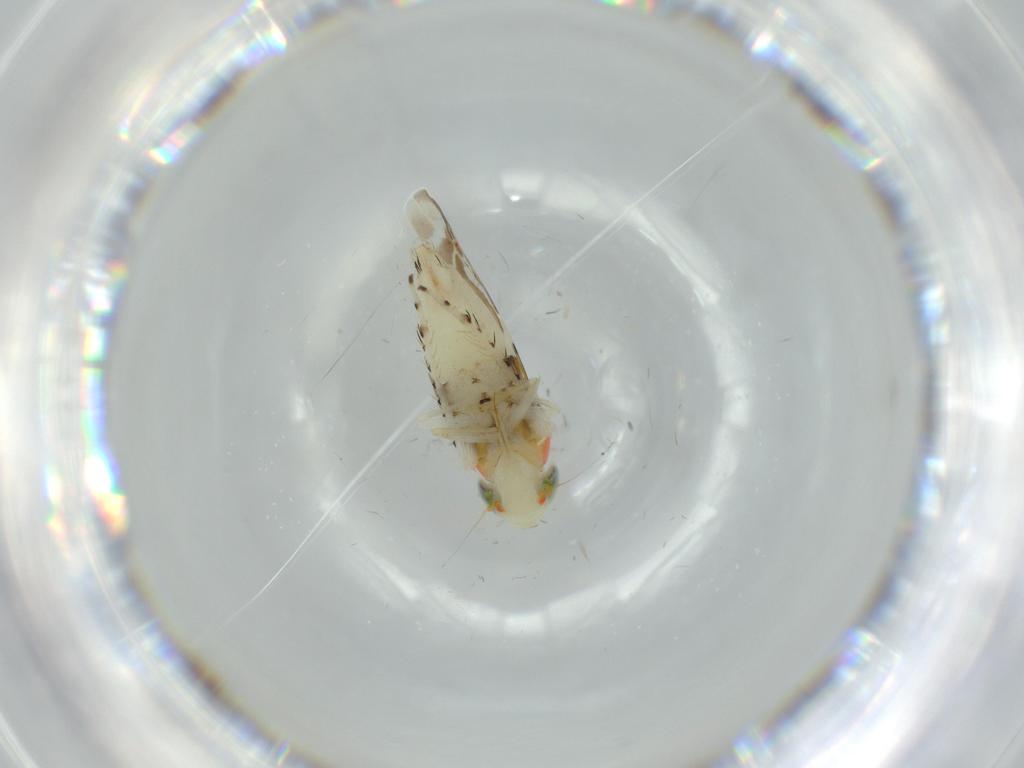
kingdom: Animalia
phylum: Arthropoda
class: Insecta
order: Hemiptera
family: Cicadellidae
